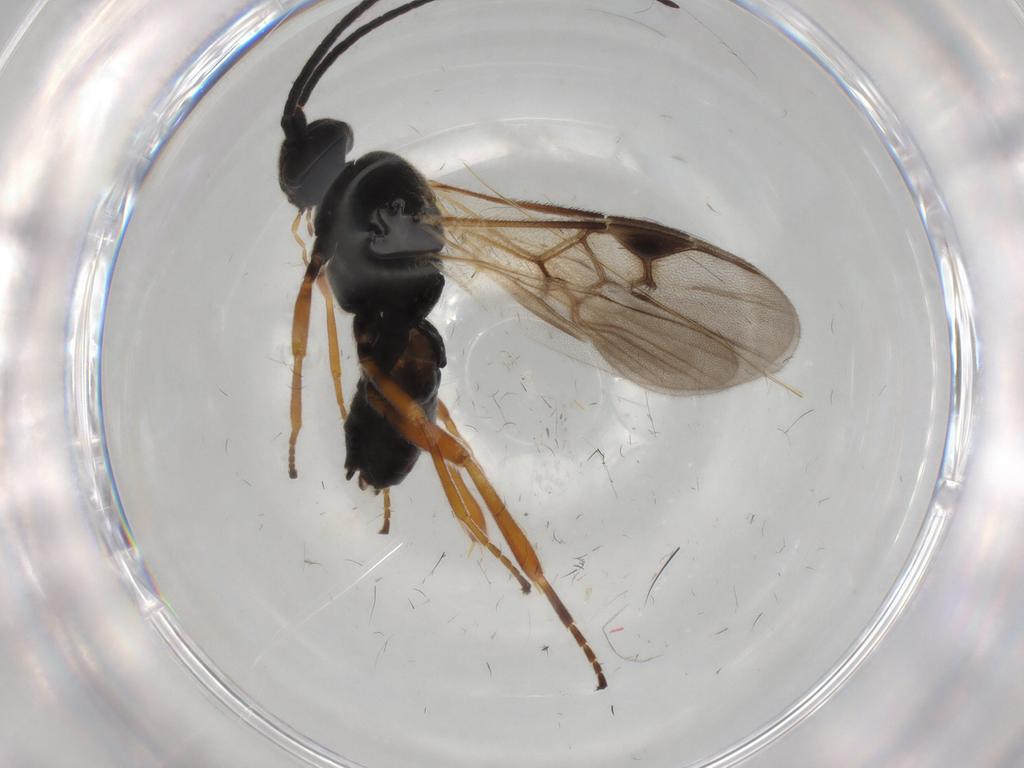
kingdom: Animalia
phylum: Arthropoda
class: Insecta
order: Hymenoptera
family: Braconidae
